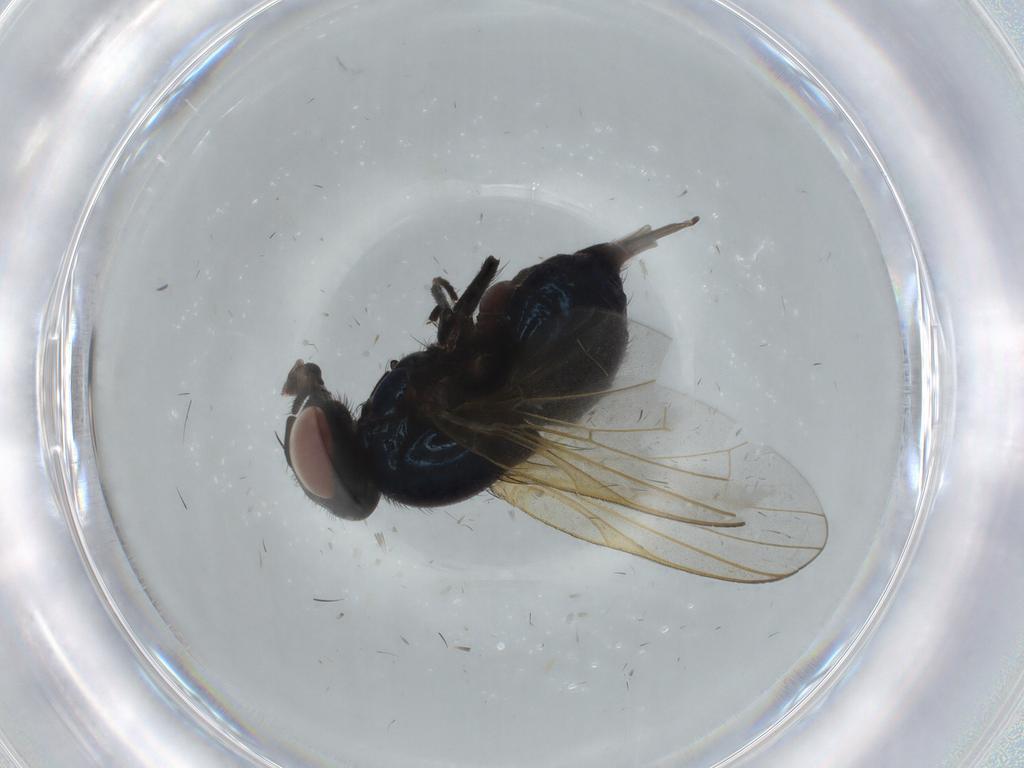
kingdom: Animalia
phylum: Arthropoda
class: Insecta
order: Diptera
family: Lonchaeidae
